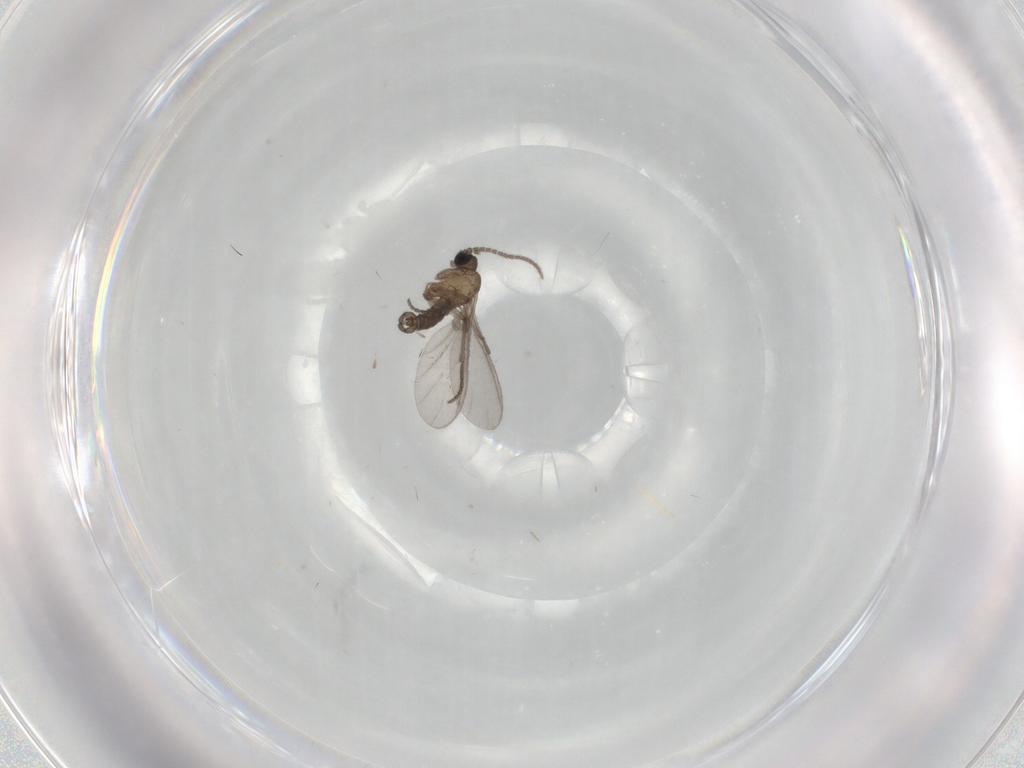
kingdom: Animalia
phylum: Arthropoda
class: Insecta
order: Diptera
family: Sciaridae
